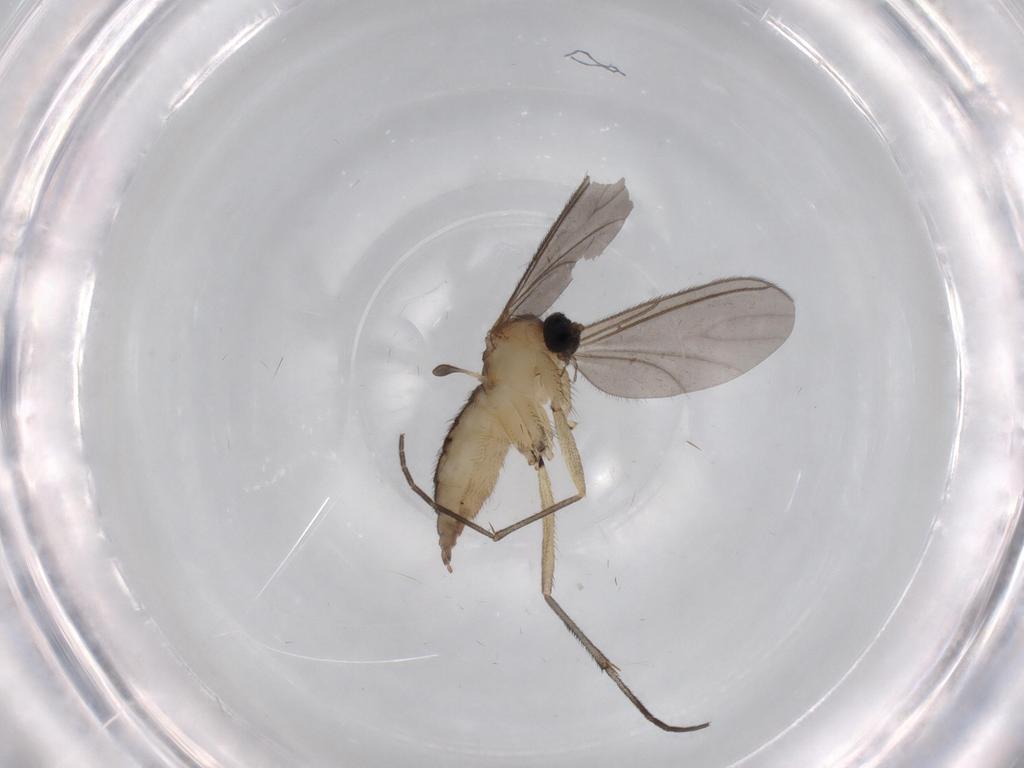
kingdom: Animalia
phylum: Arthropoda
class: Insecta
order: Diptera
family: Sciaridae
